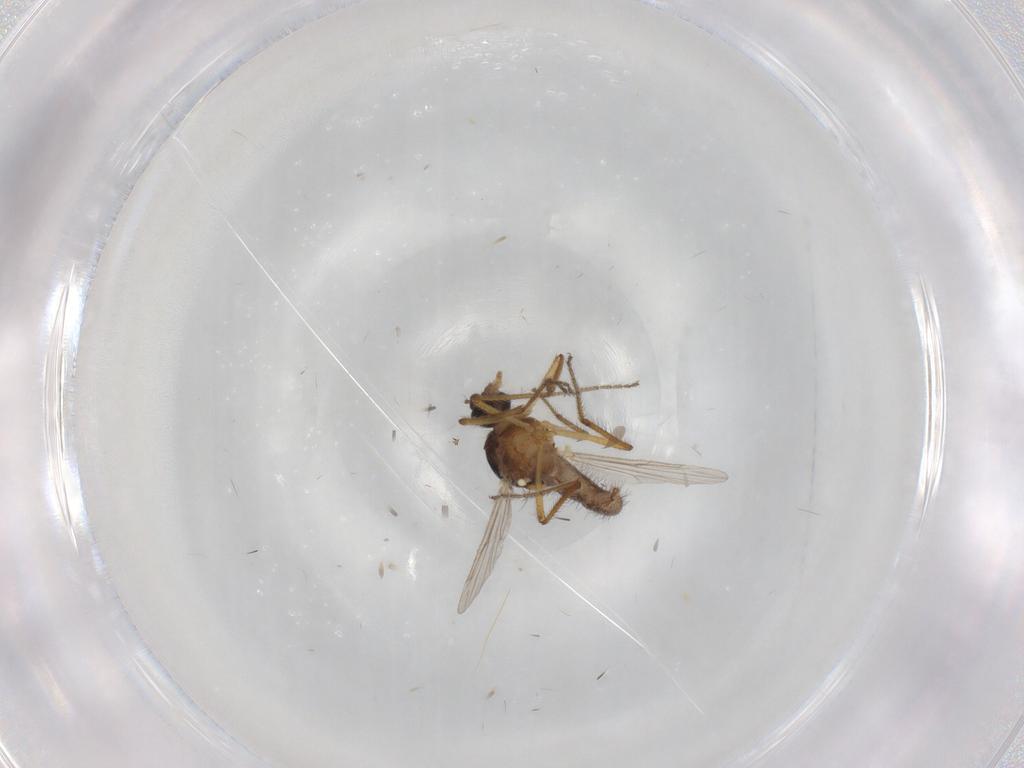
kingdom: Animalia
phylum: Arthropoda
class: Insecta
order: Diptera
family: Ceratopogonidae
